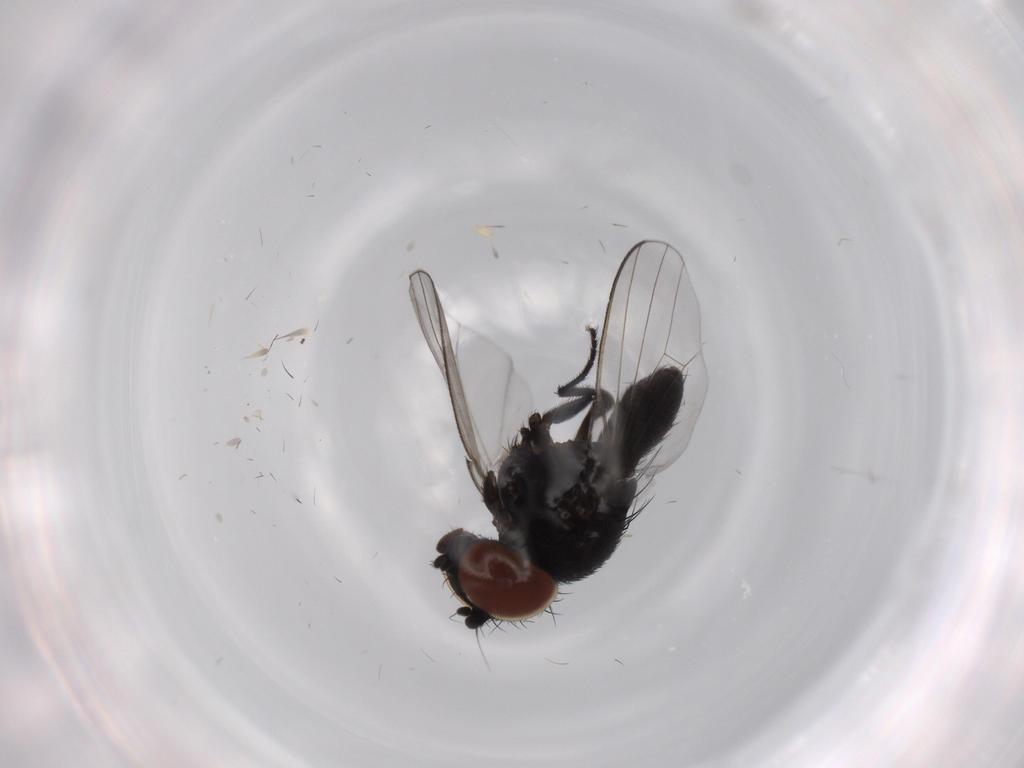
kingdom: Animalia
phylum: Arthropoda
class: Insecta
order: Diptera
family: Milichiidae
